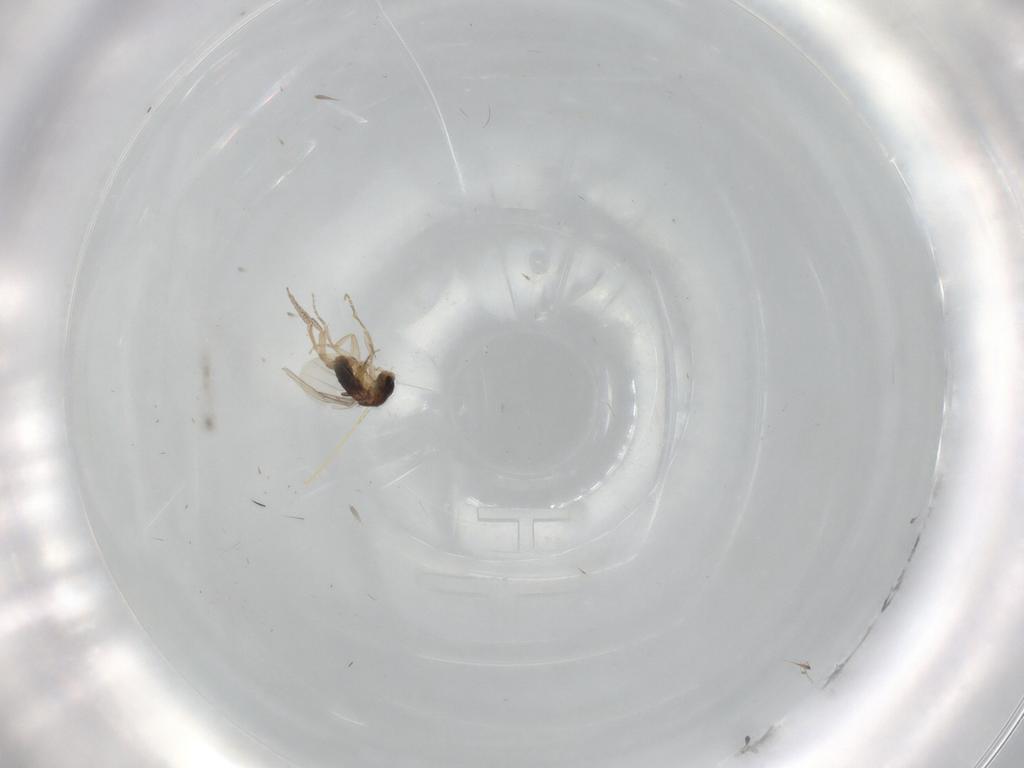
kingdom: Animalia
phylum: Arthropoda
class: Insecta
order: Diptera
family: Phoridae
